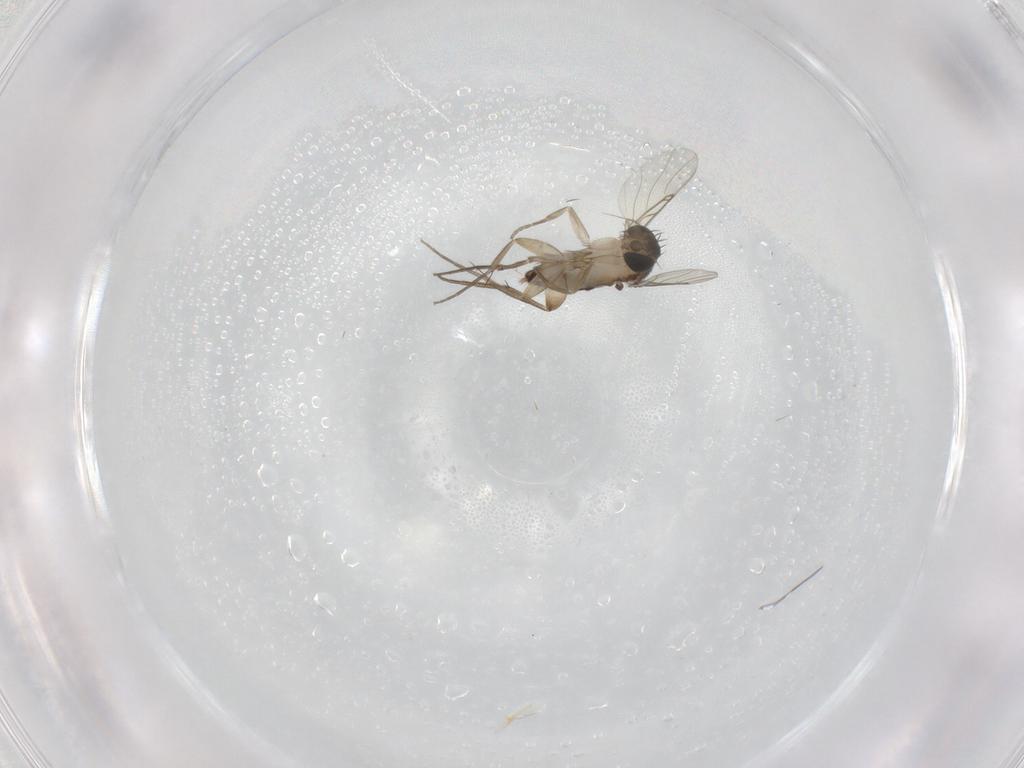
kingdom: Animalia
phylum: Arthropoda
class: Insecta
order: Diptera
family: Phoridae
